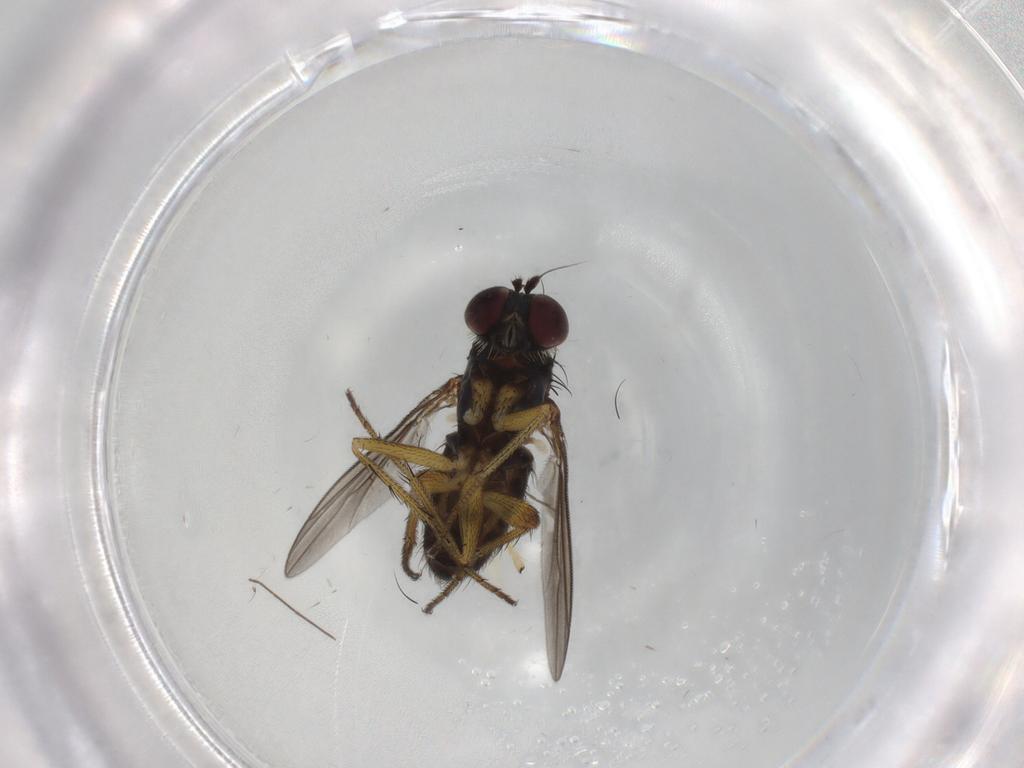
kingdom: Animalia
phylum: Arthropoda
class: Insecta
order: Diptera
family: Dolichopodidae
